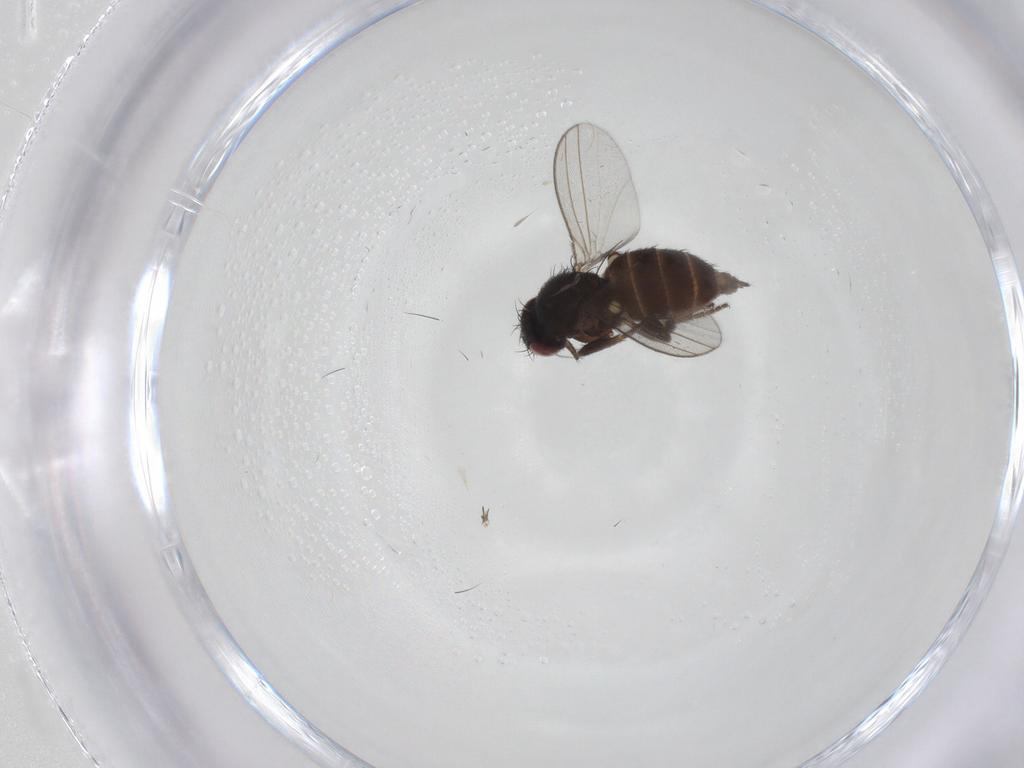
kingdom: Animalia
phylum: Arthropoda
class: Insecta
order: Diptera
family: Milichiidae
